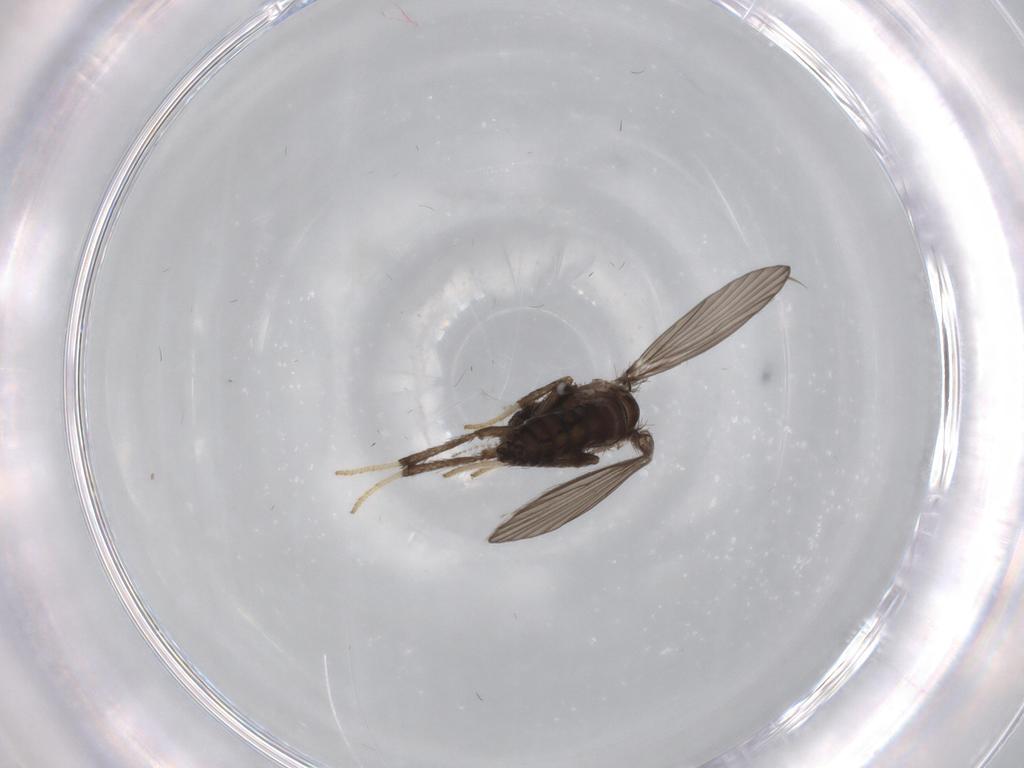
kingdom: Animalia
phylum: Arthropoda
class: Insecta
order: Diptera
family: Psychodidae
